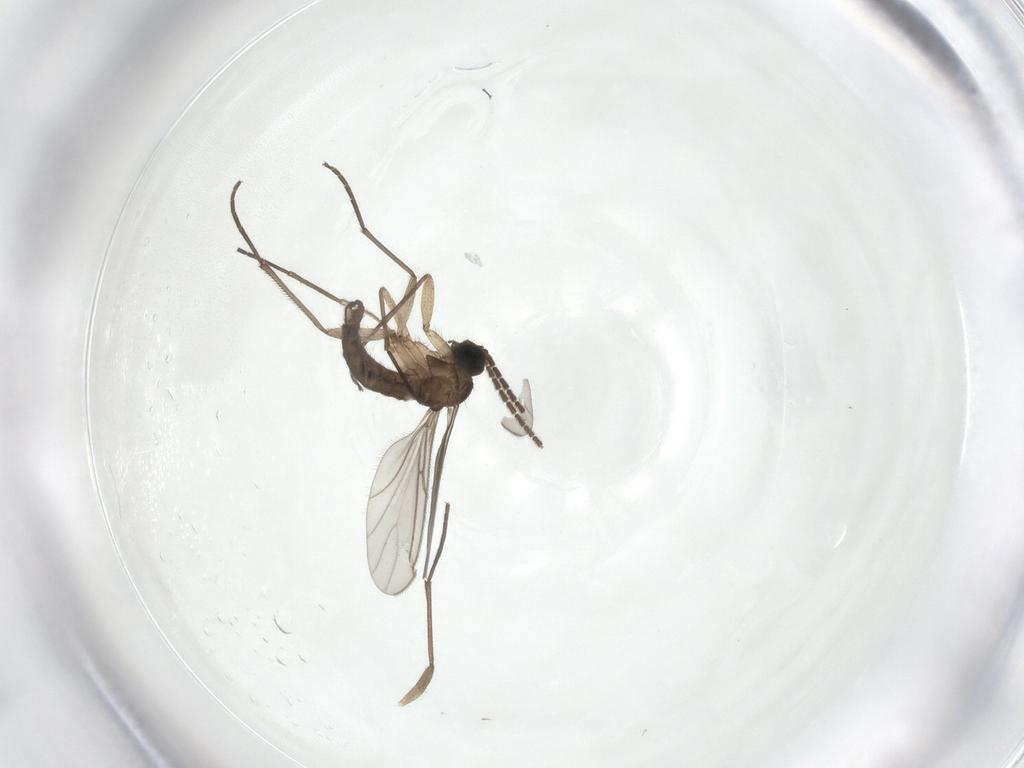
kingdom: Animalia
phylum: Arthropoda
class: Insecta
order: Diptera
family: Sciaridae
